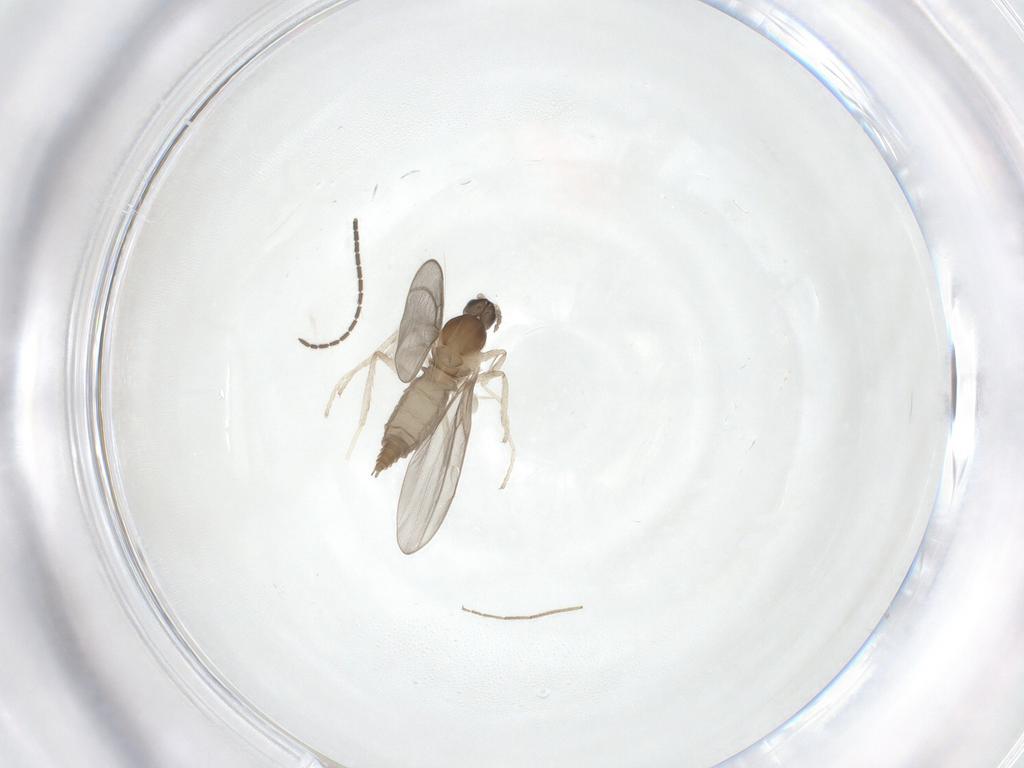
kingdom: Animalia
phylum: Arthropoda
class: Insecta
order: Diptera
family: Cecidomyiidae
